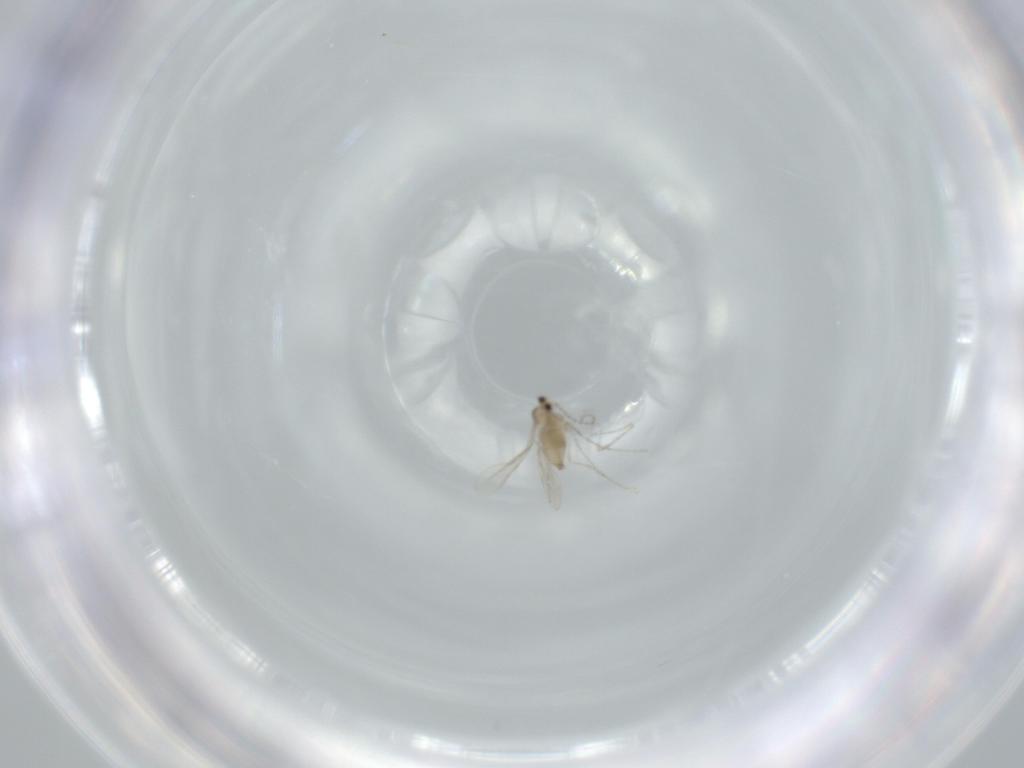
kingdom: Animalia
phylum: Arthropoda
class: Insecta
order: Diptera
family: Cecidomyiidae
